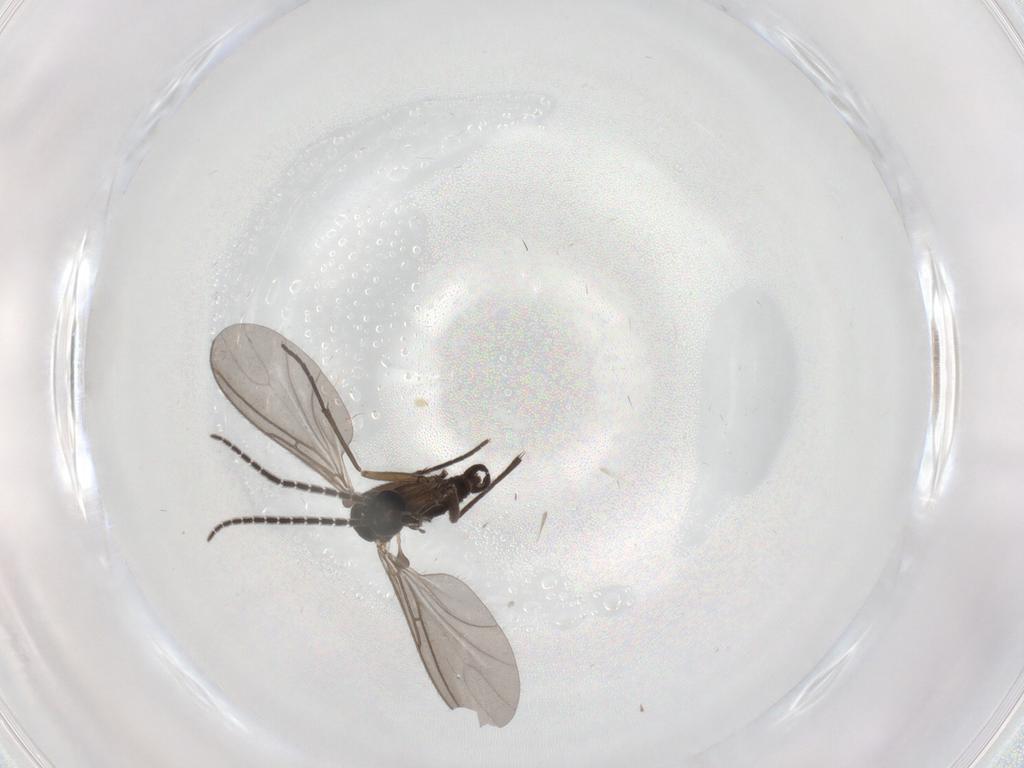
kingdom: Animalia
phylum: Arthropoda
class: Insecta
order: Diptera
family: Sciaridae
